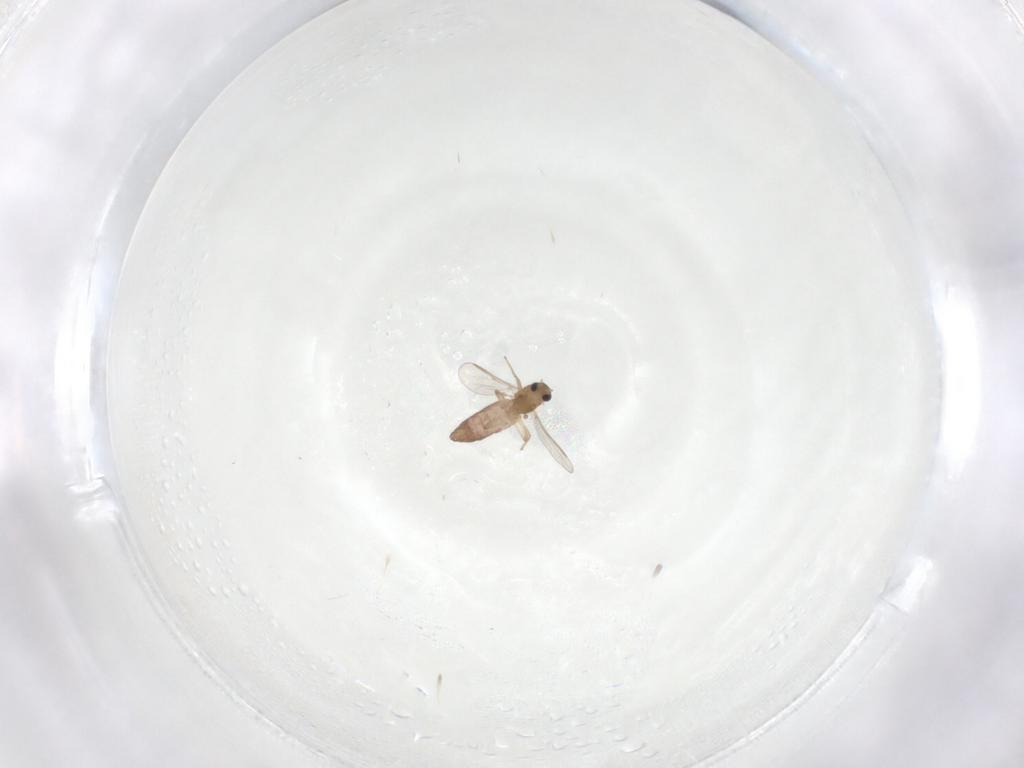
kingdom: Animalia
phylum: Arthropoda
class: Insecta
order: Diptera
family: Chironomidae
